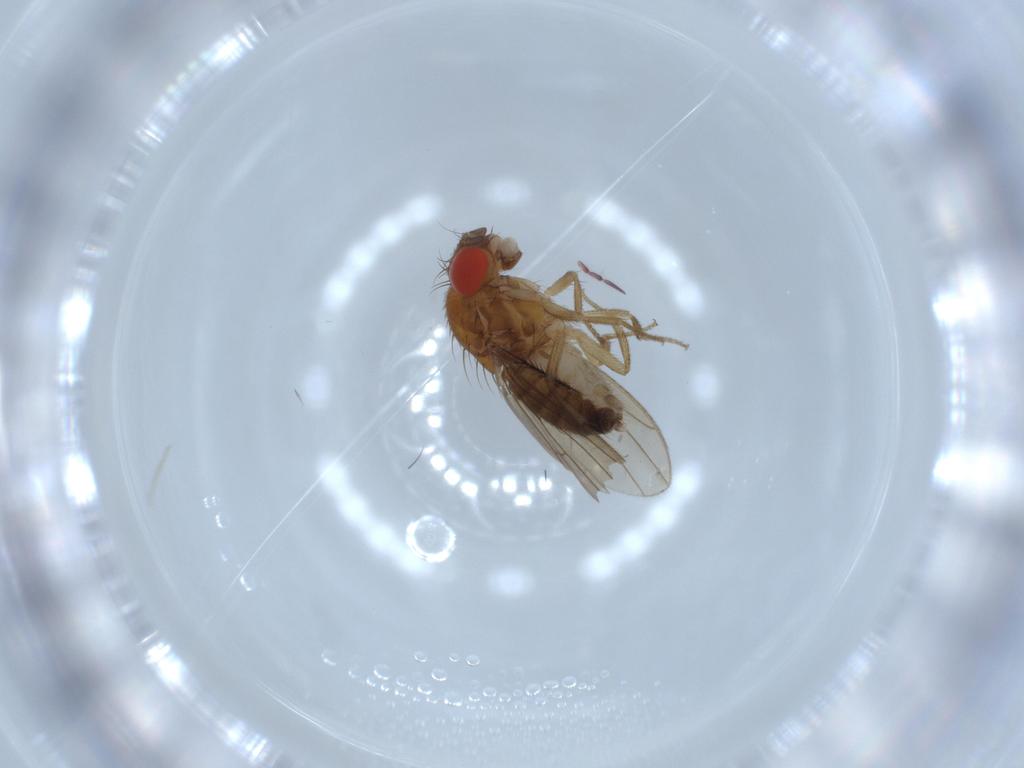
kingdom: Animalia
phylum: Arthropoda
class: Insecta
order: Diptera
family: Drosophilidae
